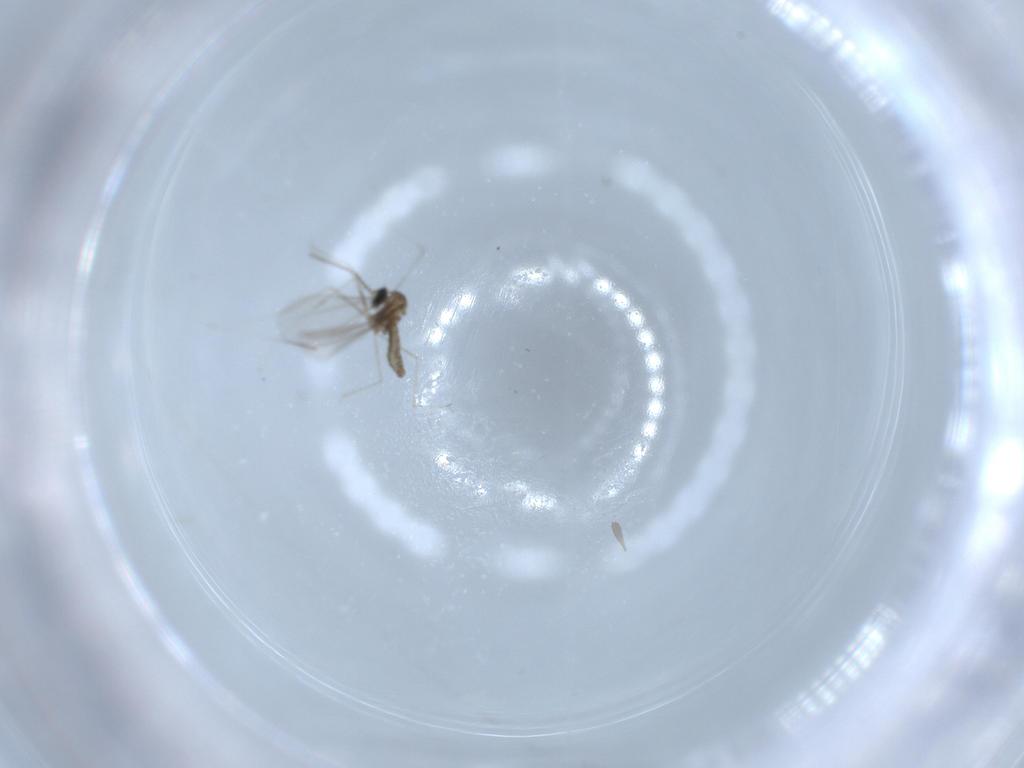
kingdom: Animalia
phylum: Arthropoda
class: Insecta
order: Diptera
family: Cecidomyiidae
